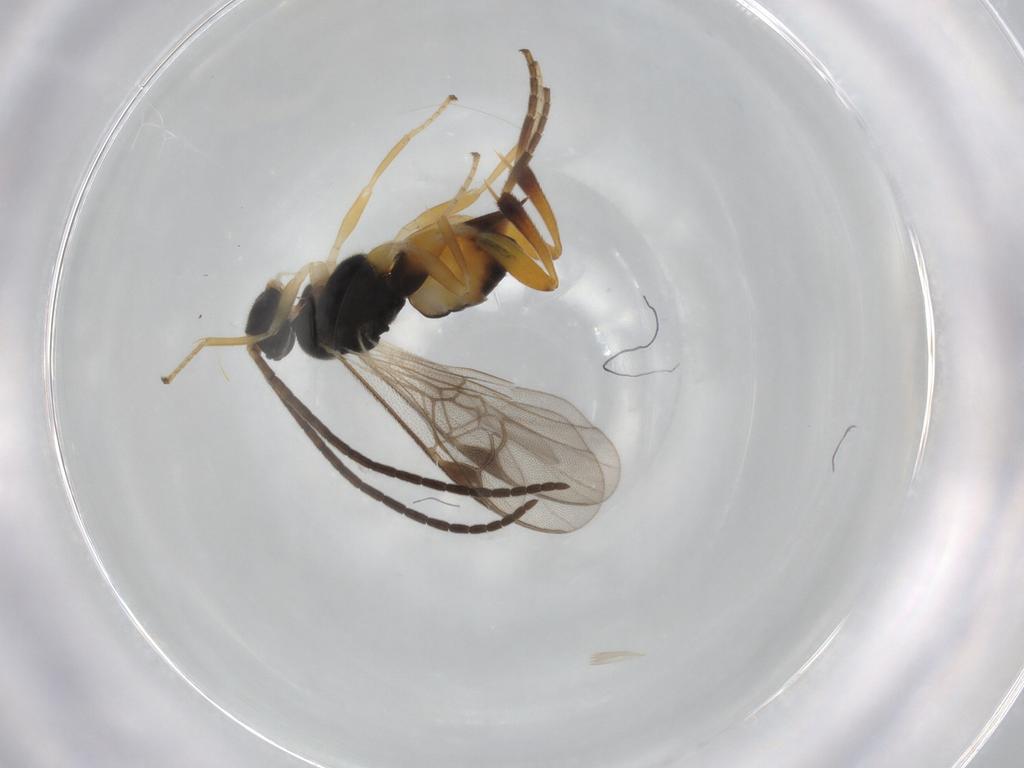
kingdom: Animalia
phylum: Arthropoda
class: Insecta
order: Hymenoptera
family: Braconidae
